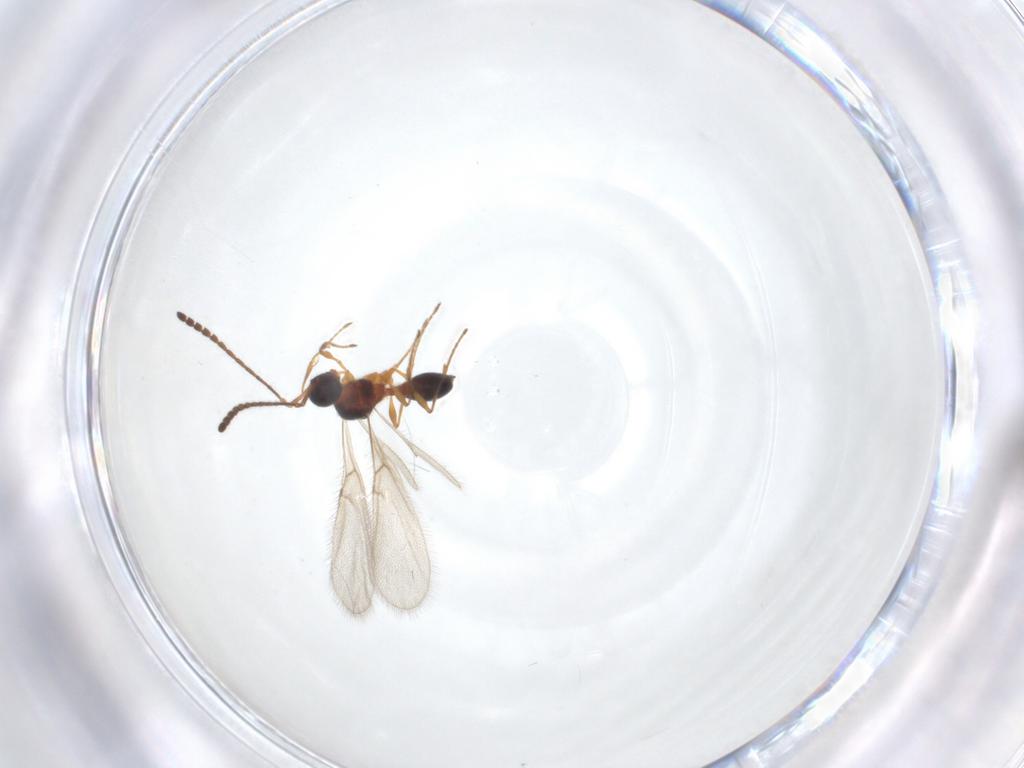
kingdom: Animalia
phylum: Arthropoda
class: Insecta
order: Hymenoptera
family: Diapriidae
